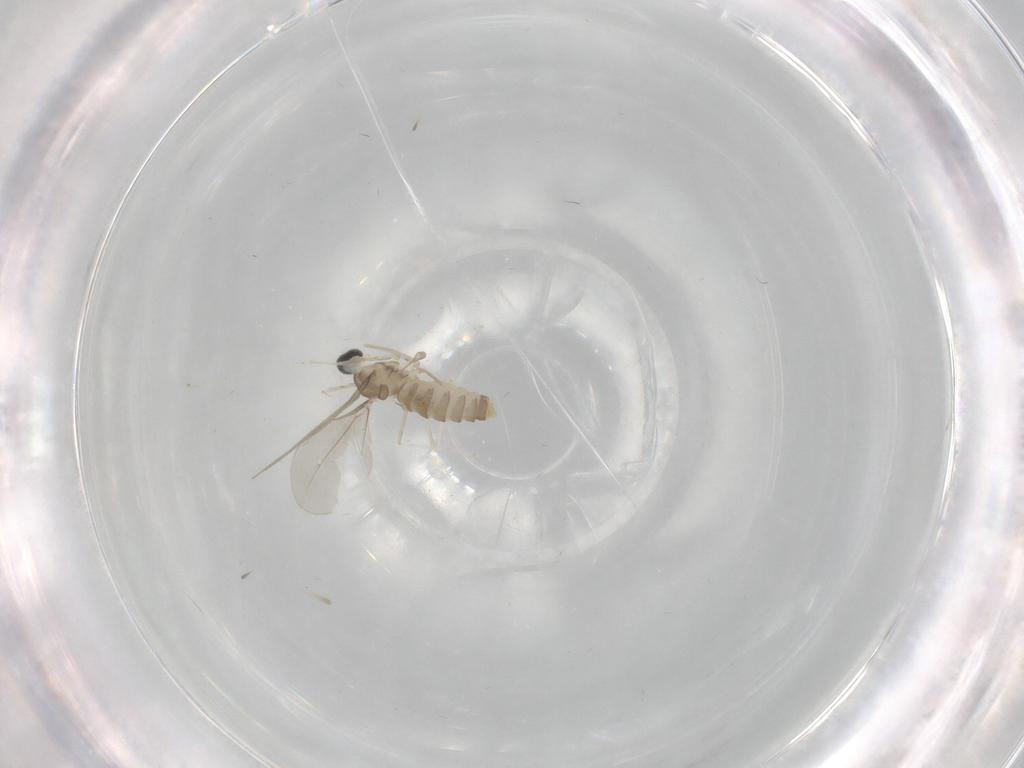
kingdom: Animalia
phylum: Arthropoda
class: Insecta
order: Diptera
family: Cecidomyiidae
